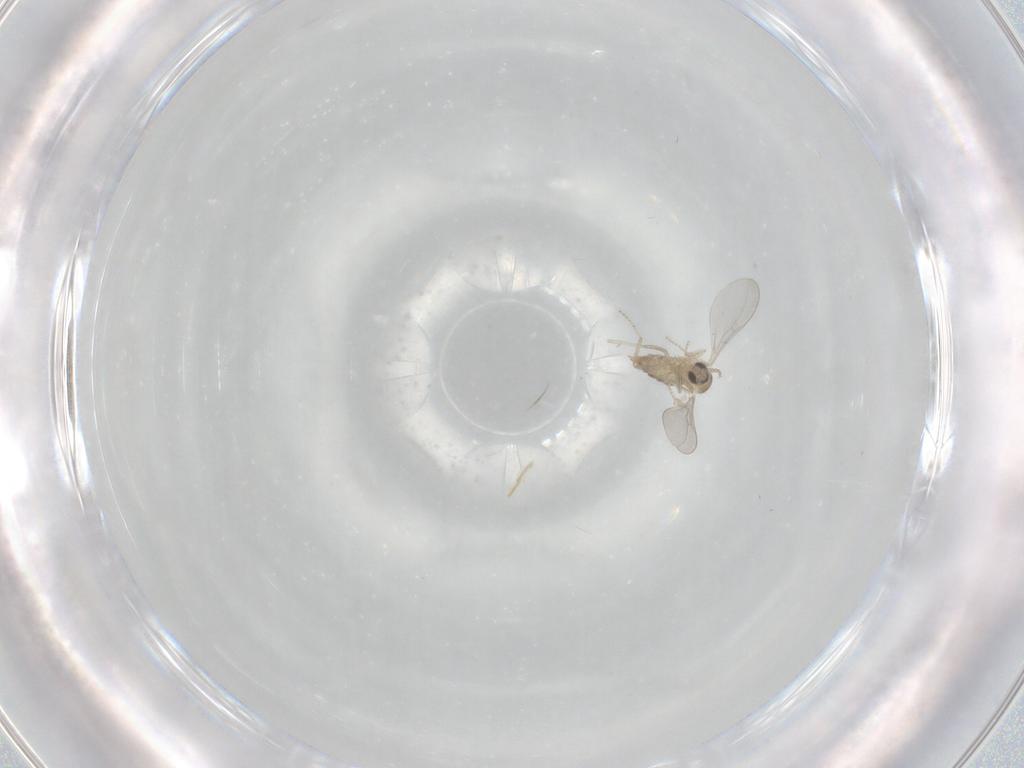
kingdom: Animalia
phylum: Arthropoda
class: Insecta
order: Diptera
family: Cecidomyiidae
